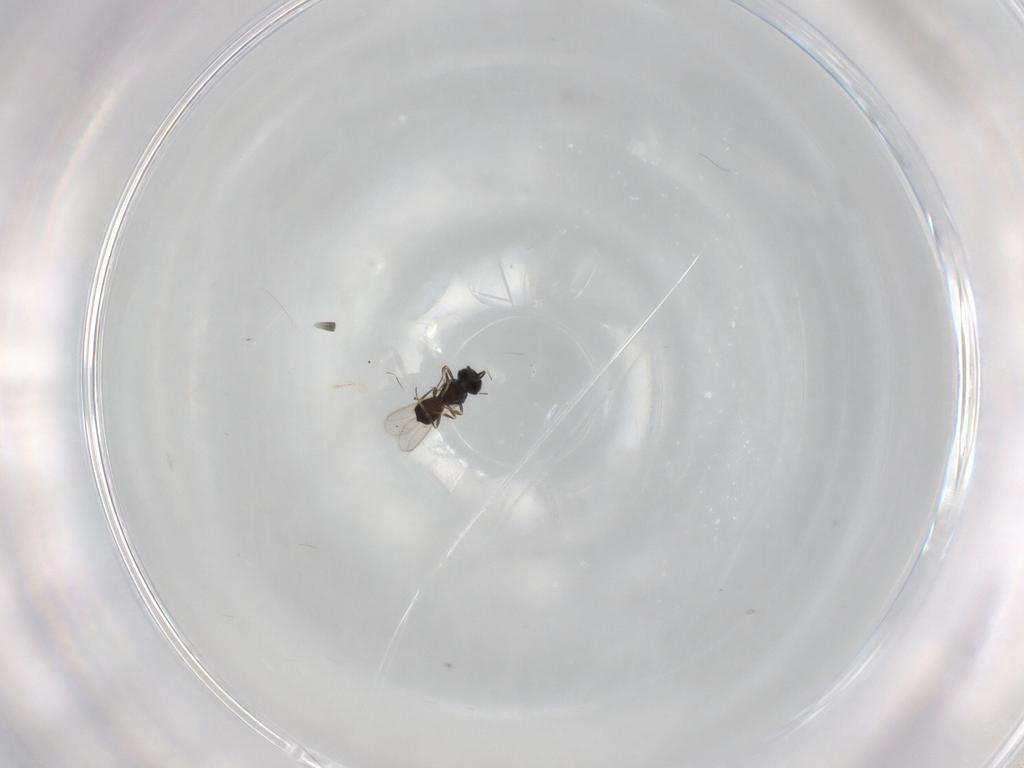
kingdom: Animalia
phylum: Arthropoda
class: Insecta
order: Hymenoptera
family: Scelionidae
